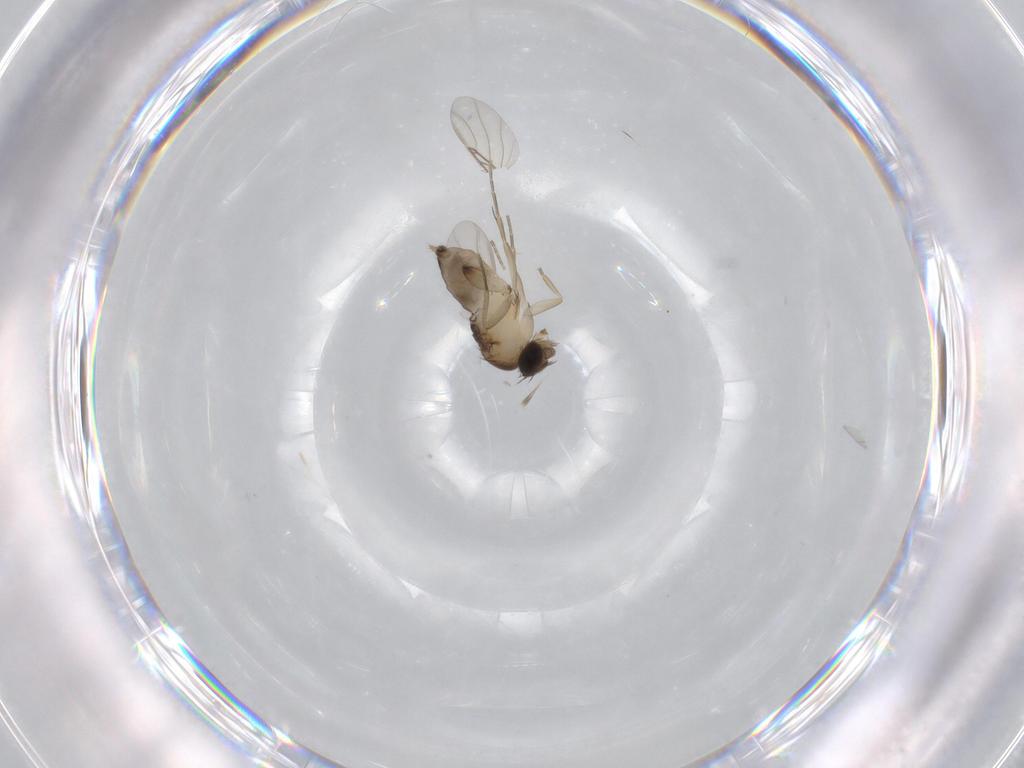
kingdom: Animalia
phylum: Arthropoda
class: Insecta
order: Diptera
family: Phoridae
